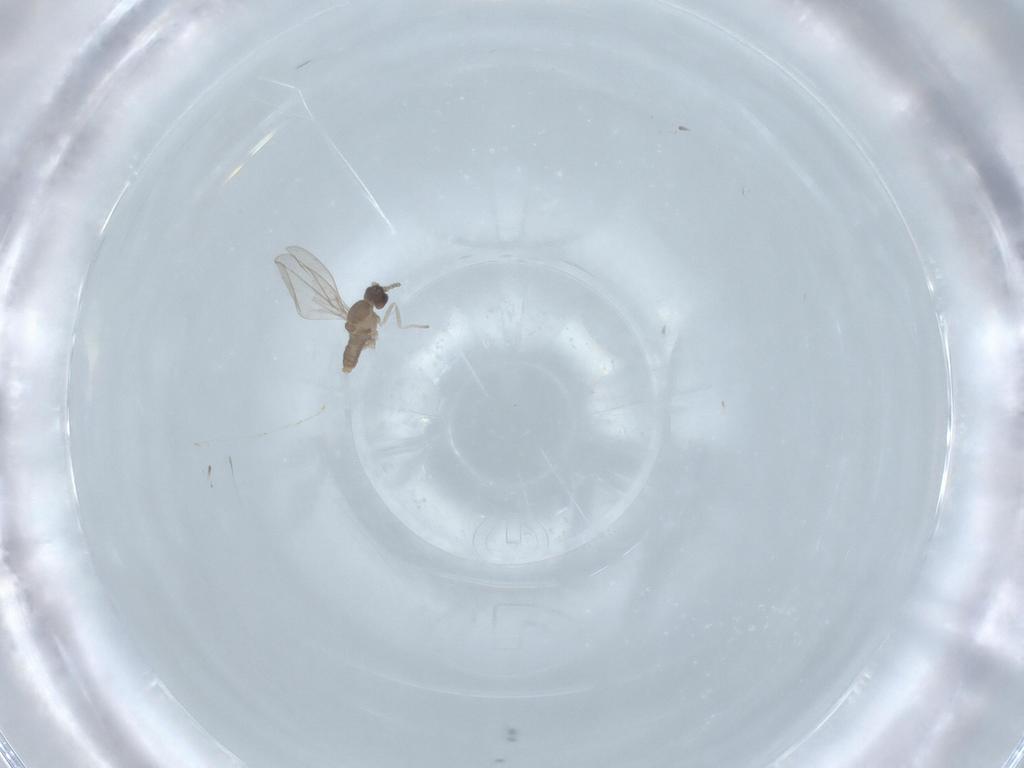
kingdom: Animalia
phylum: Arthropoda
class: Insecta
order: Diptera
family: Cecidomyiidae
